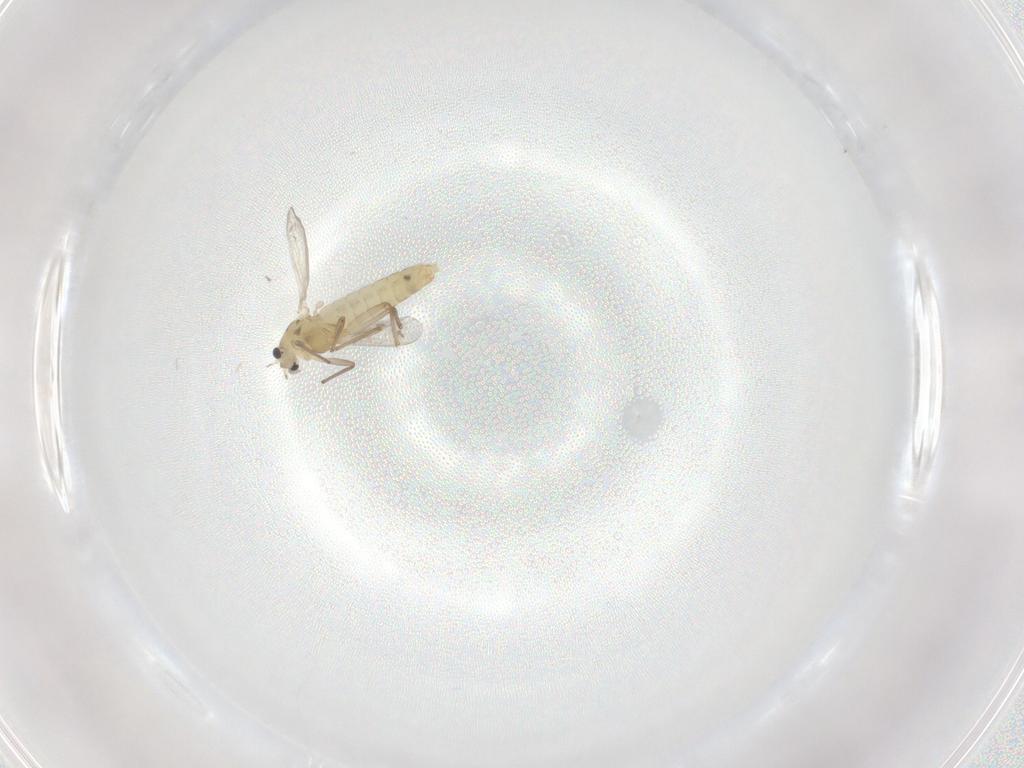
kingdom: Animalia
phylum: Arthropoda
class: Insecta
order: Diptera
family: Chironomidae
